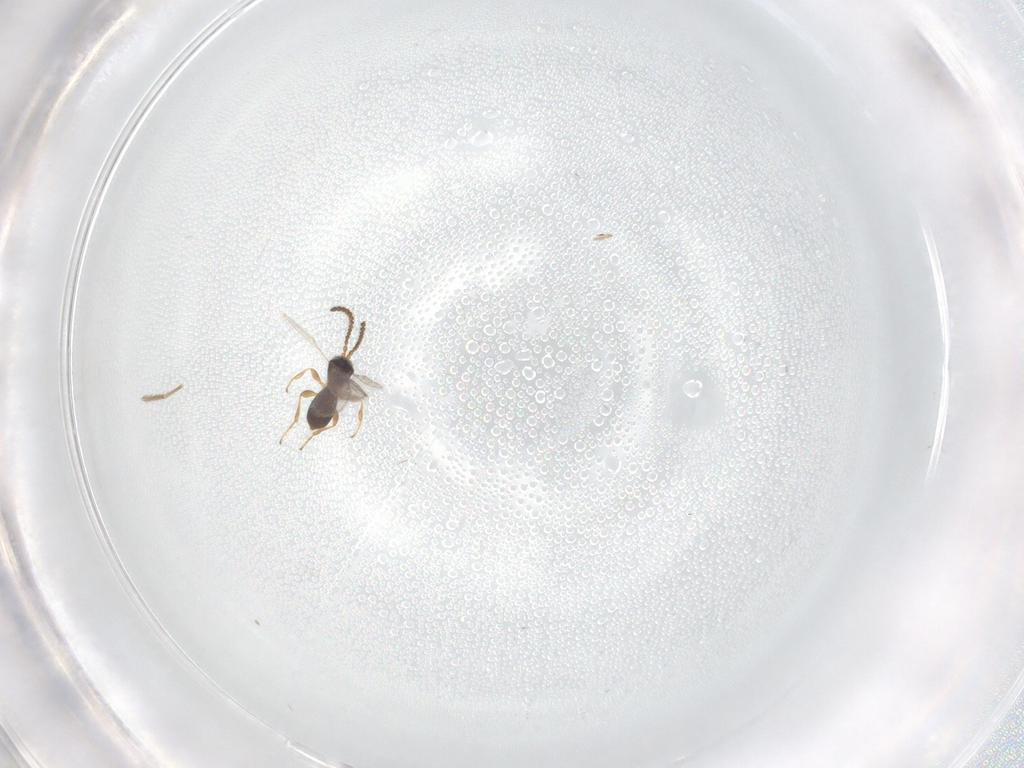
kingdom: Animalia
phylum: Arthropoda
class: Insecta
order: Hymenoptera
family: Diapriidae
